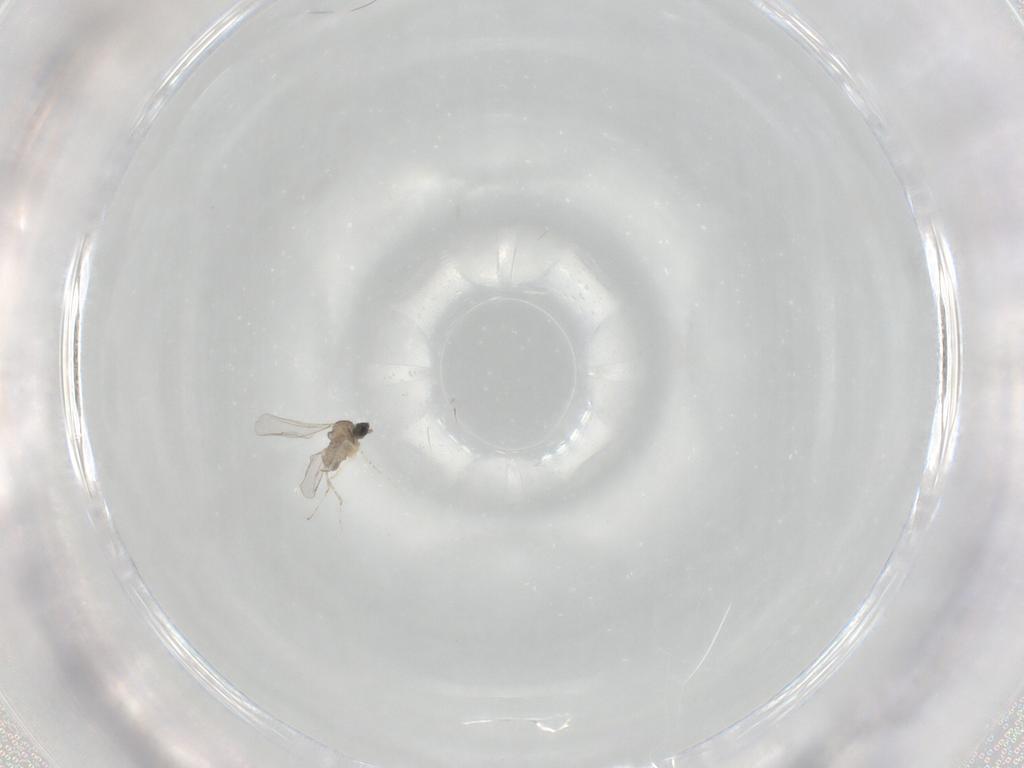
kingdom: Animalia
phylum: Arthropoda
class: Insecta
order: Diptera
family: Cecidomyiidae
